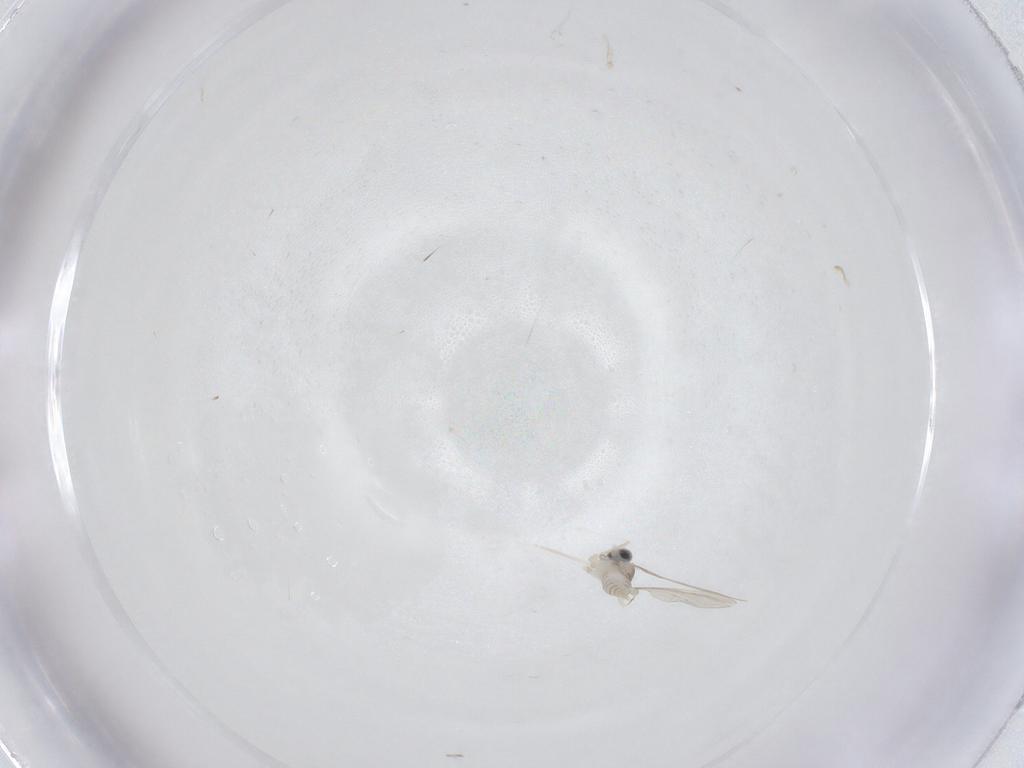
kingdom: Animalia
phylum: Arthropoda
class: Insecta
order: Diptera
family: Cecidomyiidae
